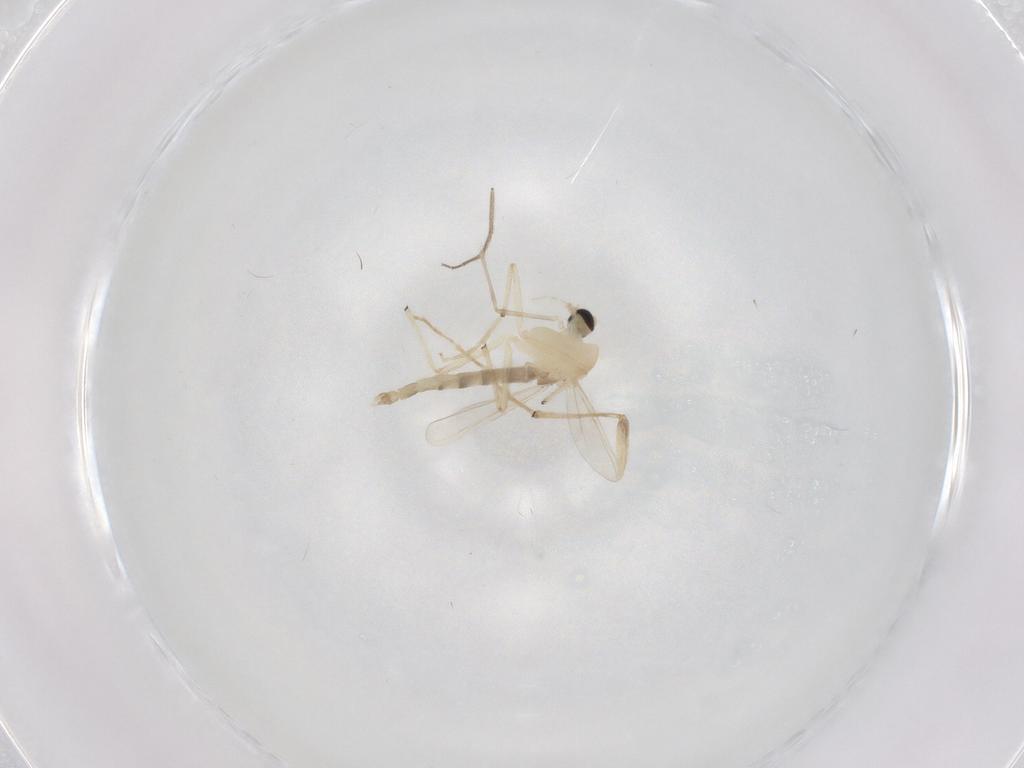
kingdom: Animalia
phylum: Arthropoda
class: Insecta
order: Diptera
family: Chironomidae
